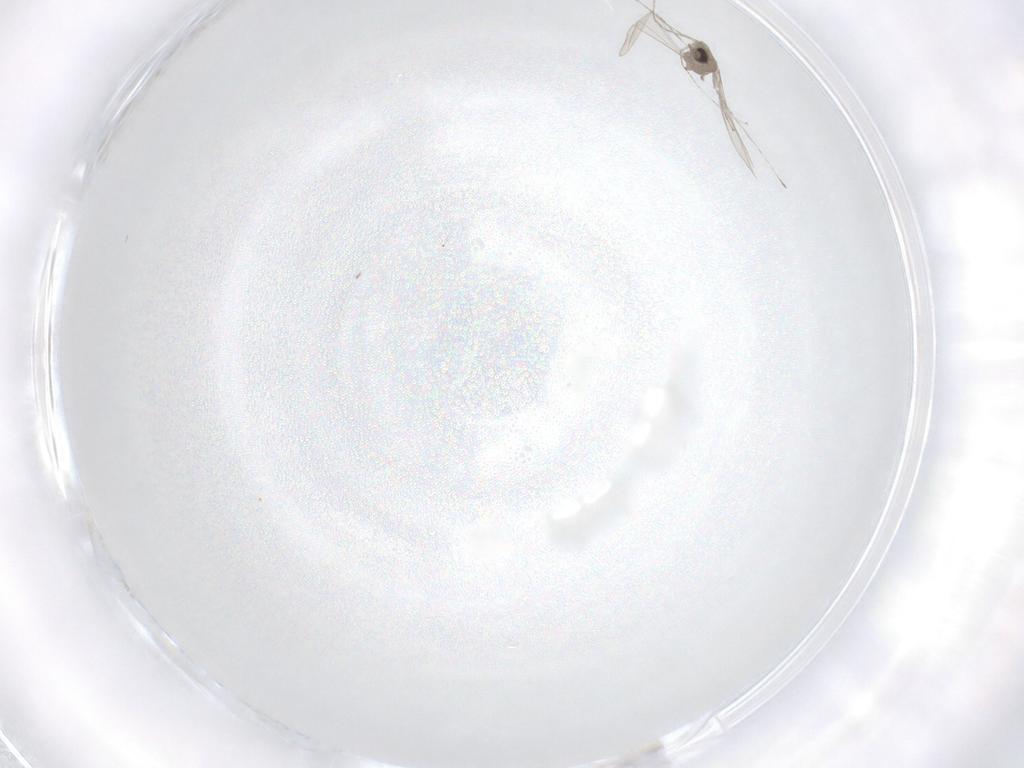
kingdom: Animalia
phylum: Arthropoda
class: Insecta
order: Diptera
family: Cecidomyiidae
